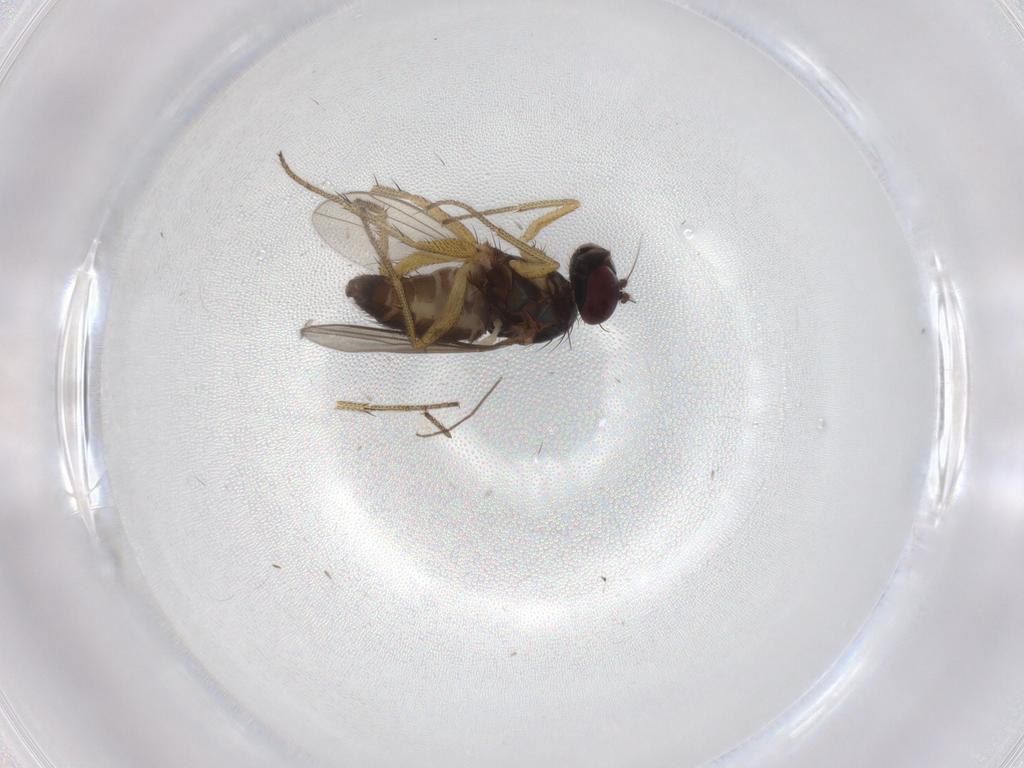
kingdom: Animalia
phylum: Arthropoda
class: Insecta
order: Diptera
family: Dolichopodidae
